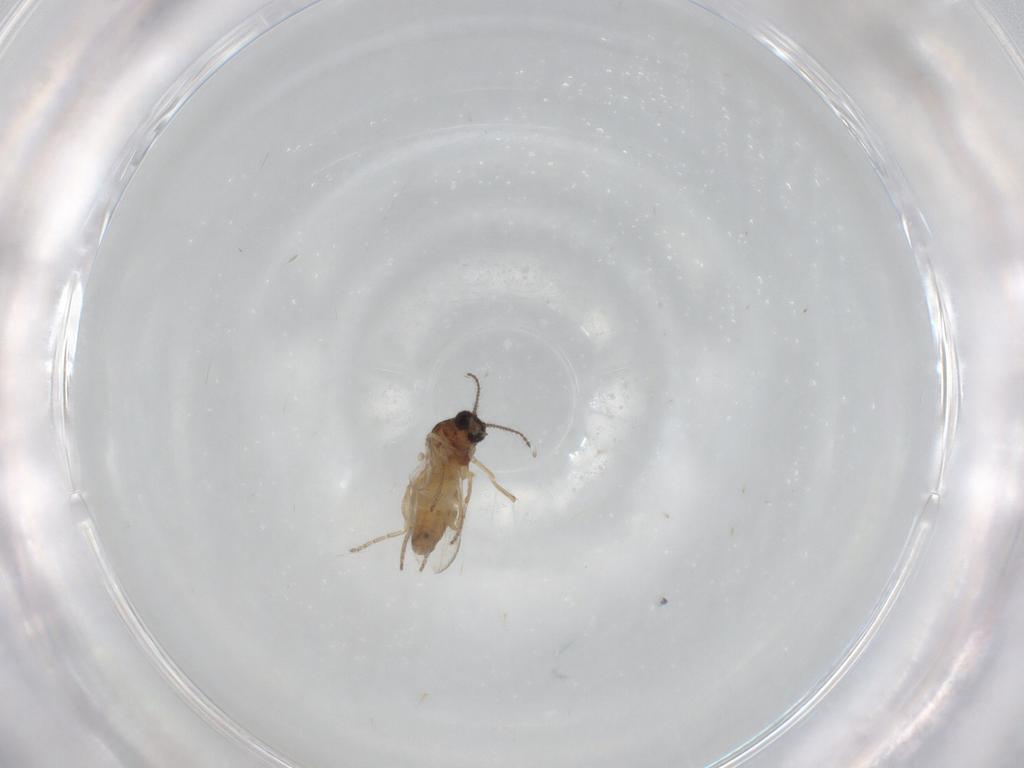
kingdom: Animalia
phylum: Arthropoda
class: Insecta
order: Diptera
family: Ceratopogonidae
